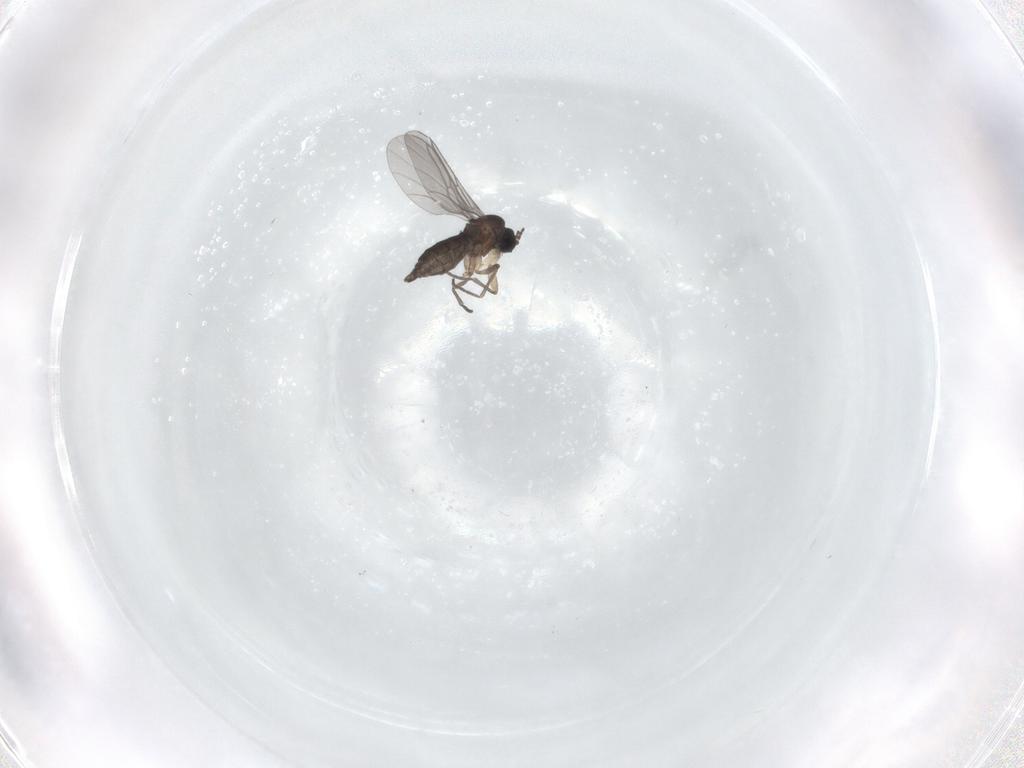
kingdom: Animalia
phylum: Arthropoda
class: Insecta
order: Diptera
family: Sciaridae
